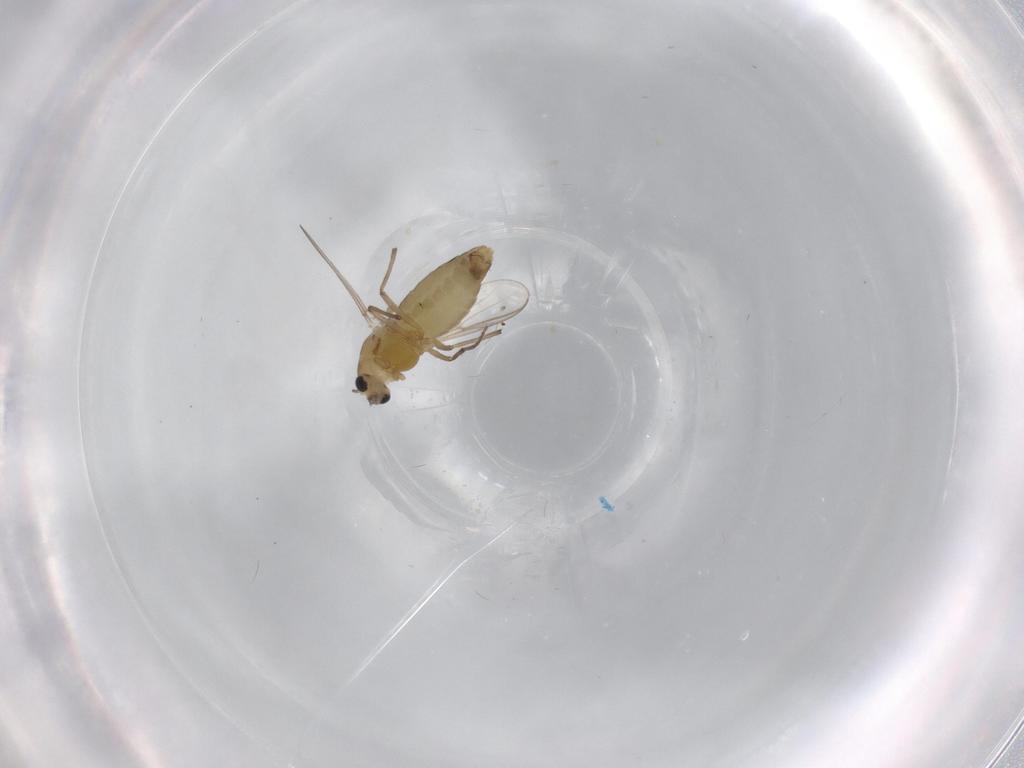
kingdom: Animalia
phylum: Arthropoda
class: Insecta
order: Diptera
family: Chironomidae
